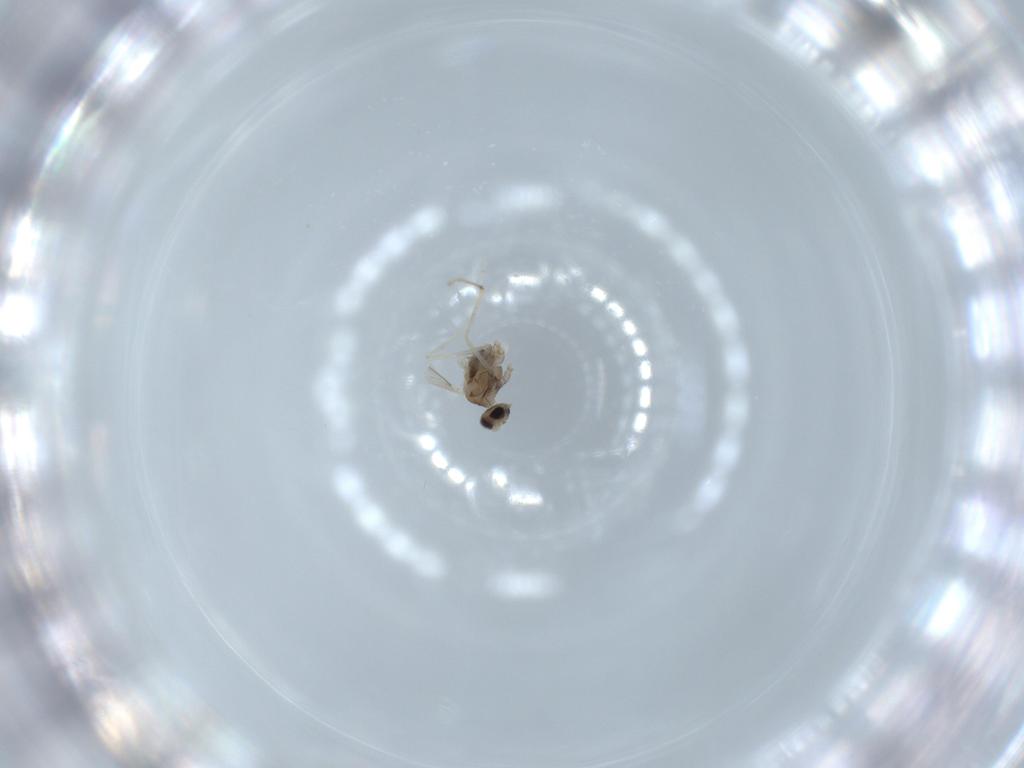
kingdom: Animalia
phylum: Arthropoda
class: Insecta
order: Diptera
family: Cecidomyiidae
